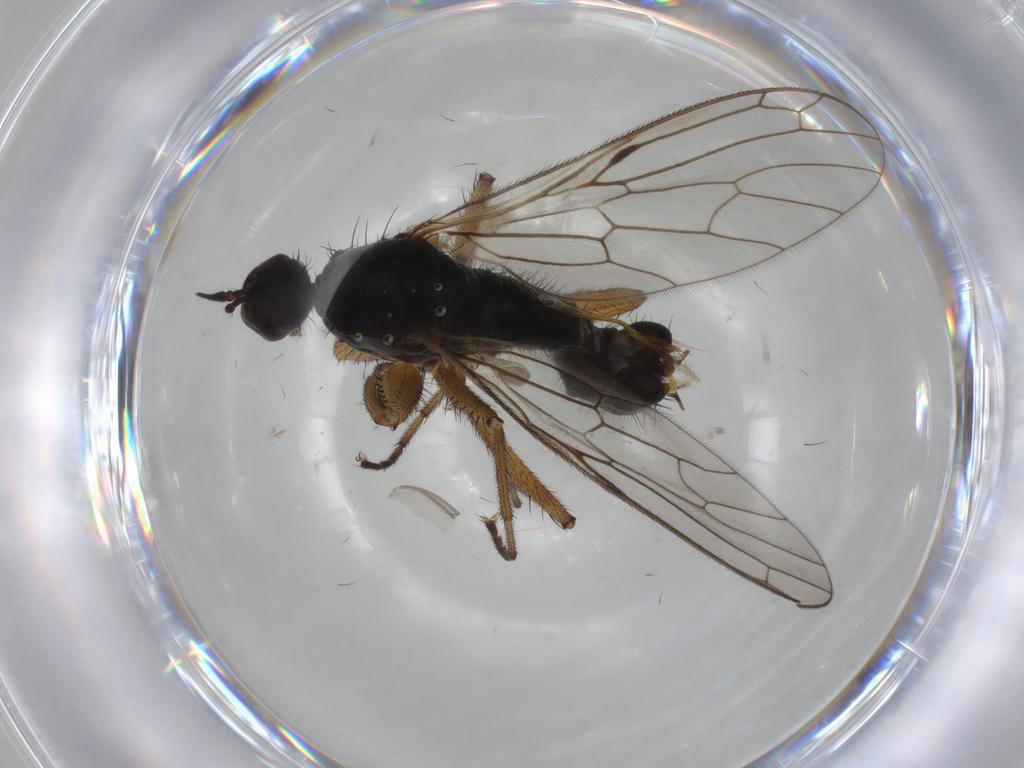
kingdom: Animalia
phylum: Arthropoda
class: Insecta
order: Diptera
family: Empididae
